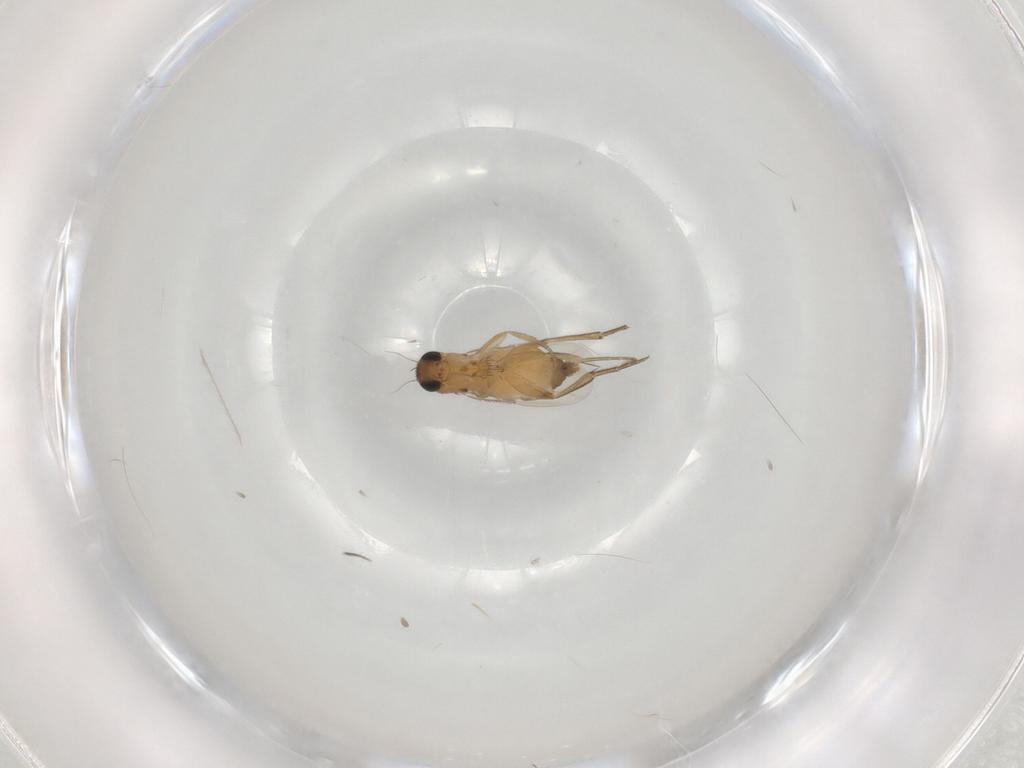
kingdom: Animalia
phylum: Arthropoda
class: Insecta
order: Diptera
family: Phoridae
